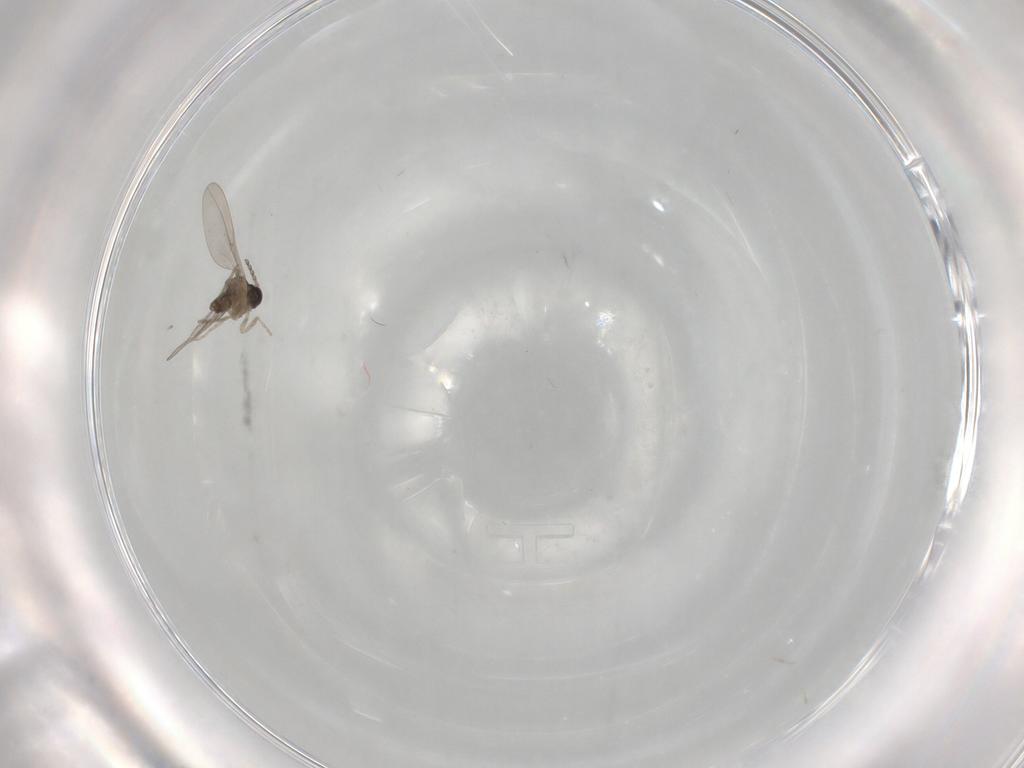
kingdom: Animalia
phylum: Arthropoda
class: Insecta
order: Diptera
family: Cecidomyiidae
